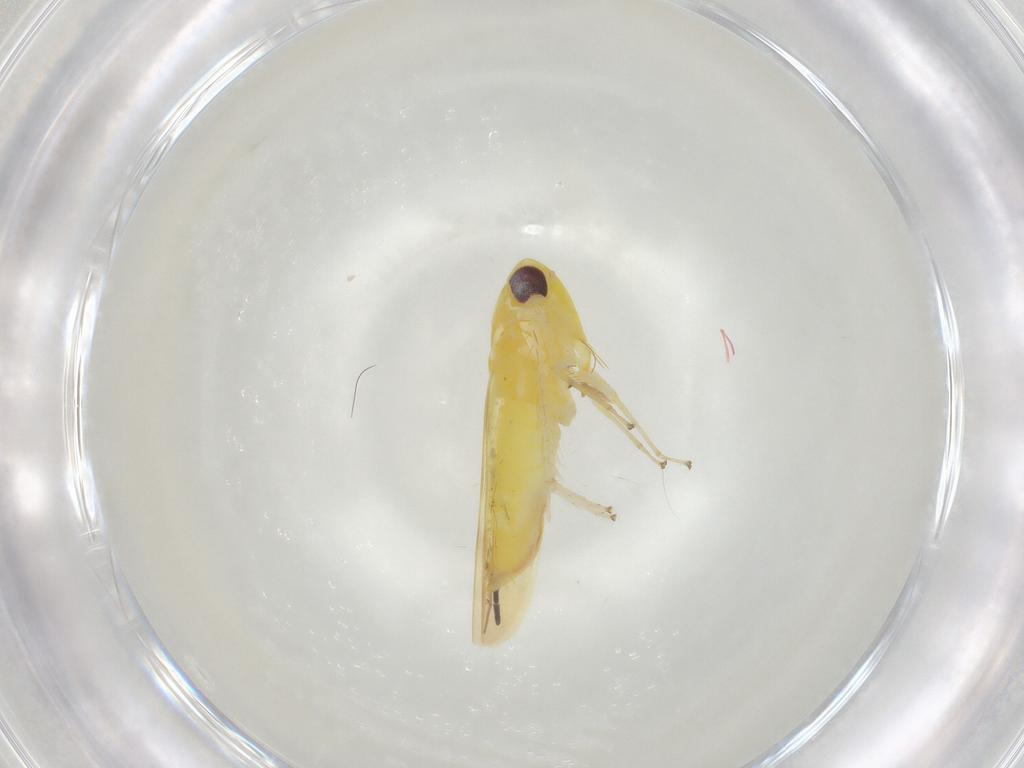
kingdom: Animalia
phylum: Arthropoda
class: Insecta
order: Hemiptera
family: Cicadellidae
